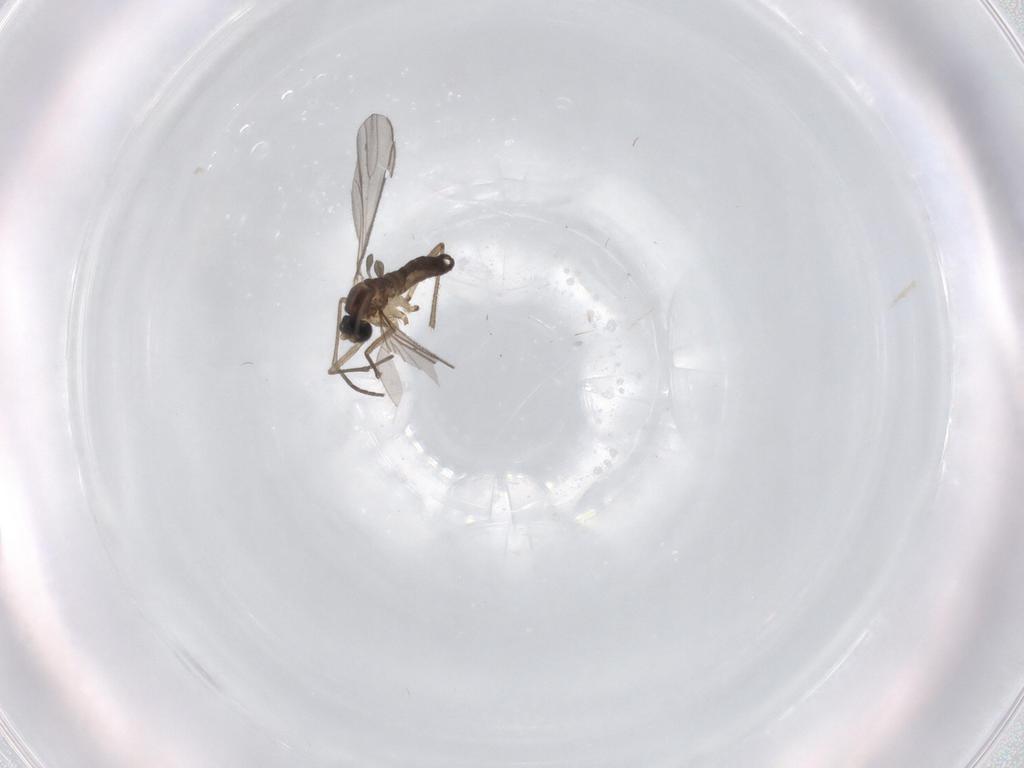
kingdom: Animalia
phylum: Arthropoda
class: Insecta
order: Diptera
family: Sciaridae
